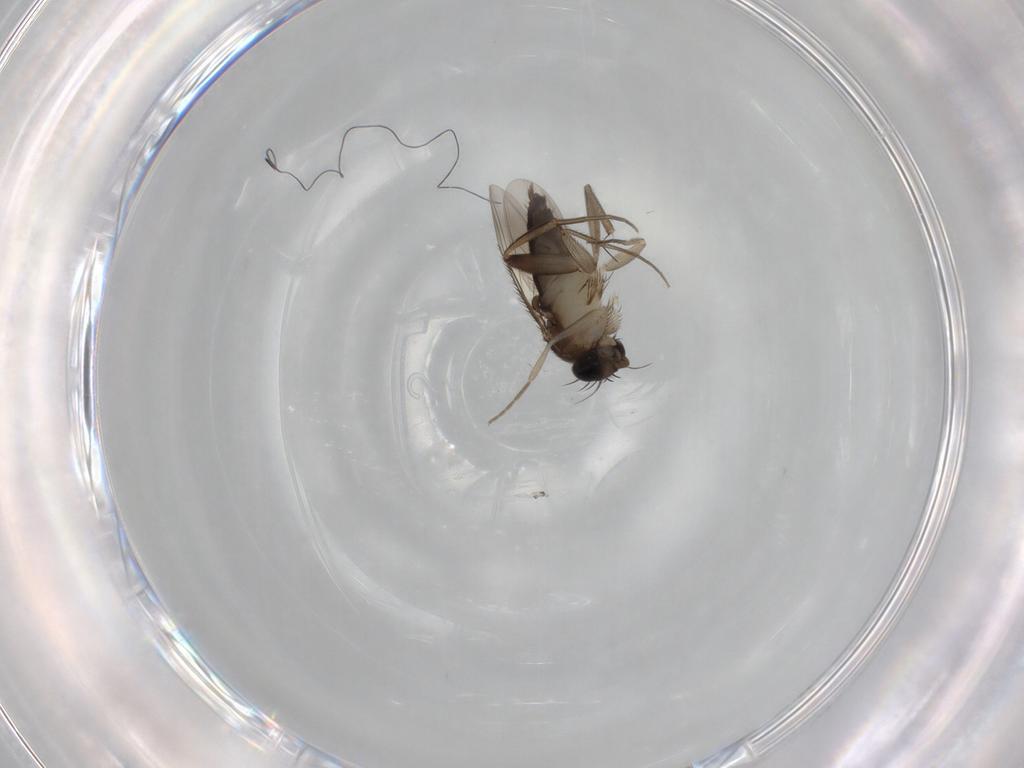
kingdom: Animalia
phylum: Arthropoda
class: Insecta
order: Diptera
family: Phoridae
